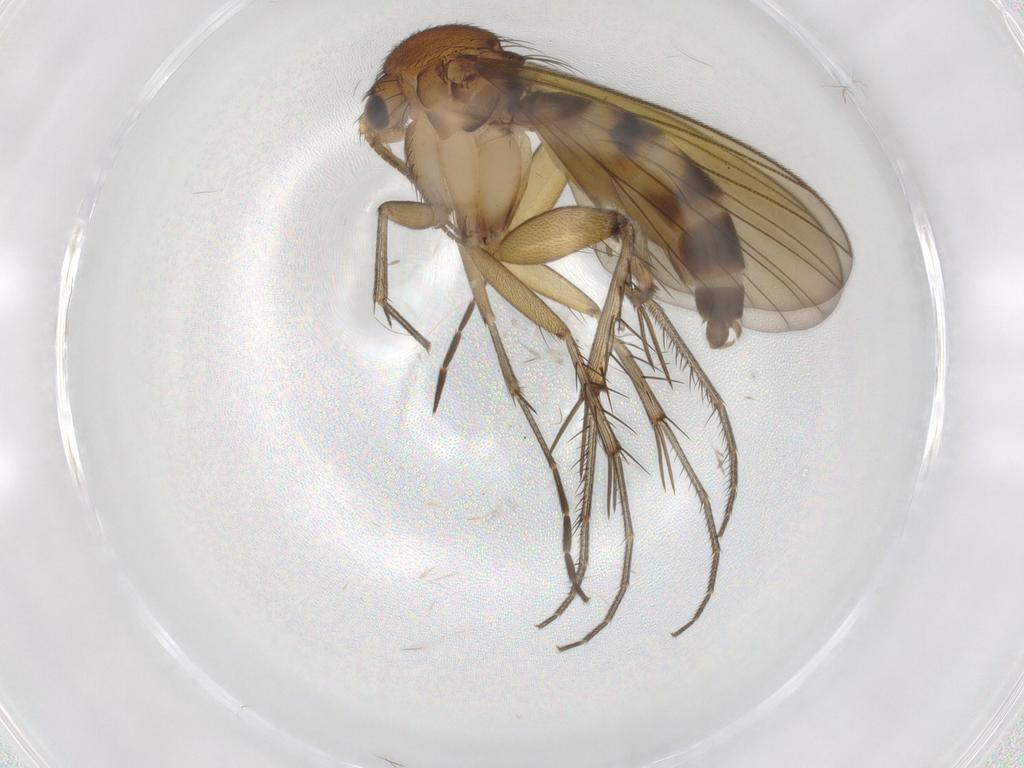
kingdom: Animalia
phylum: Arthropoda
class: Insecta
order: Diptera
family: Phoridae
